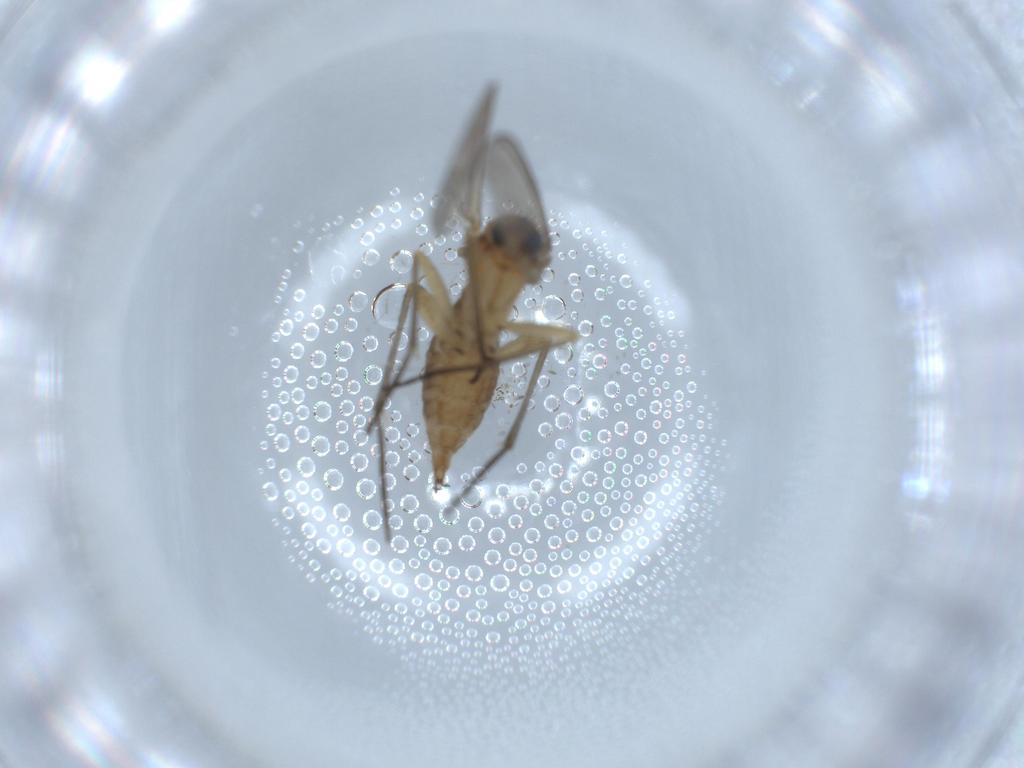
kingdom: Animalia
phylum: Arthropoda
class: Insecta
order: Diptera
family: Sciaridae
